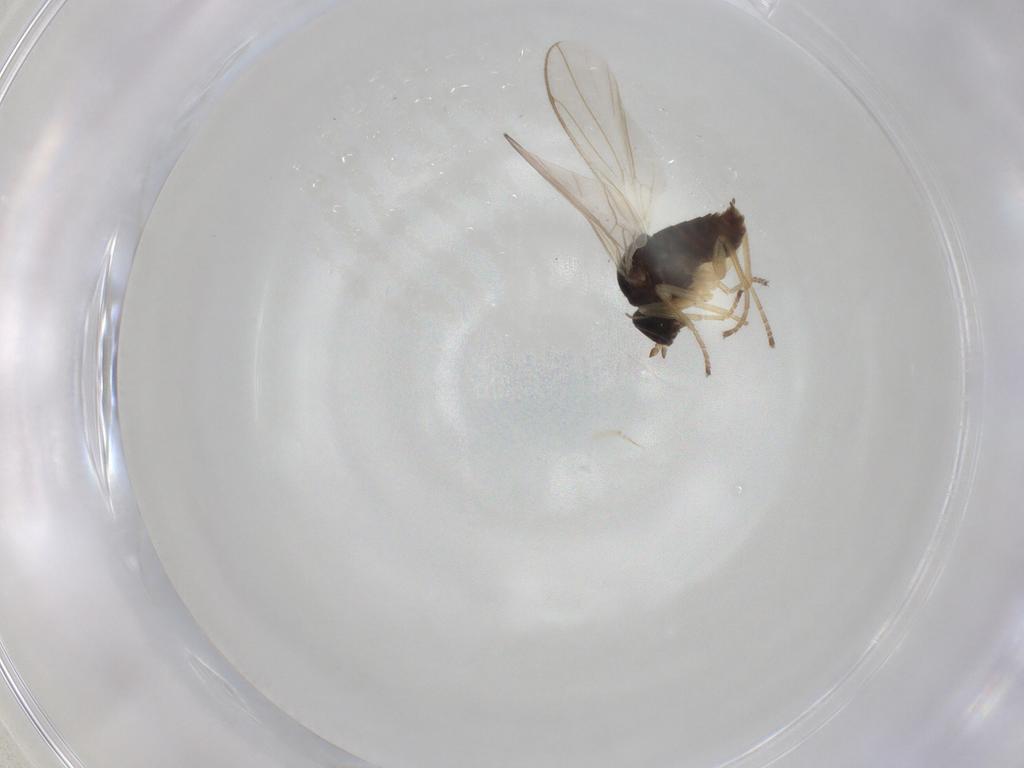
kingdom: Animalia
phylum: Arthropoda
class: Insecta
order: Diptera
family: Hybotidae
